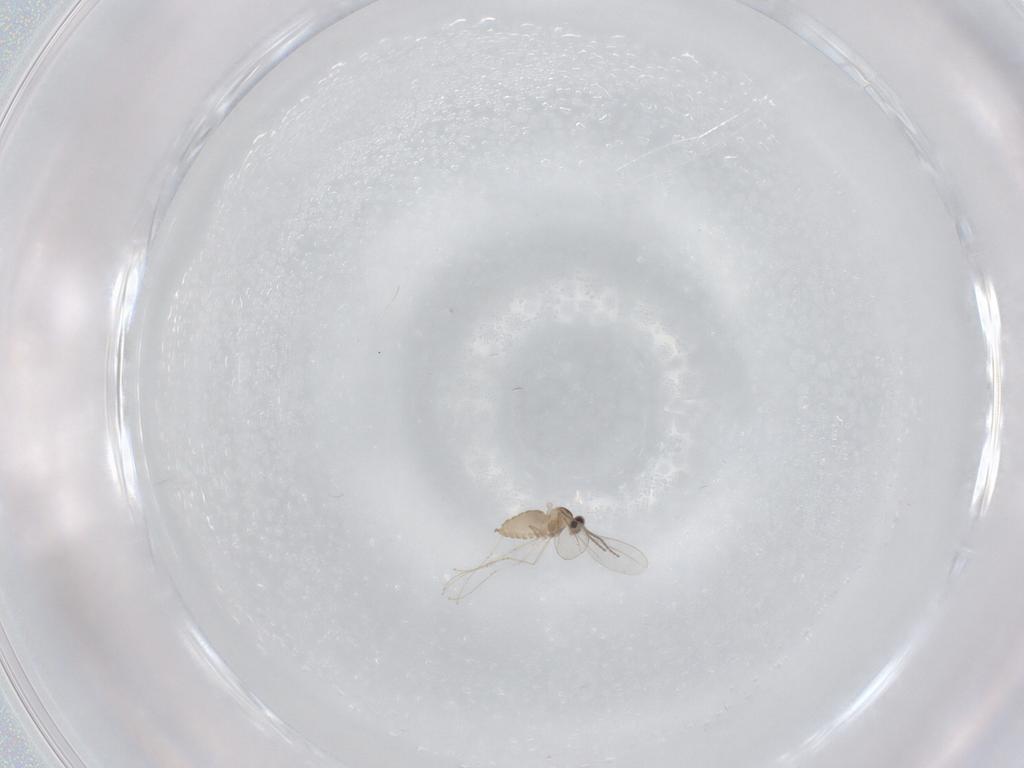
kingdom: Animalia
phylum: Arthropoda
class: Insecta
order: Diptera
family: Cecidomyiidae
